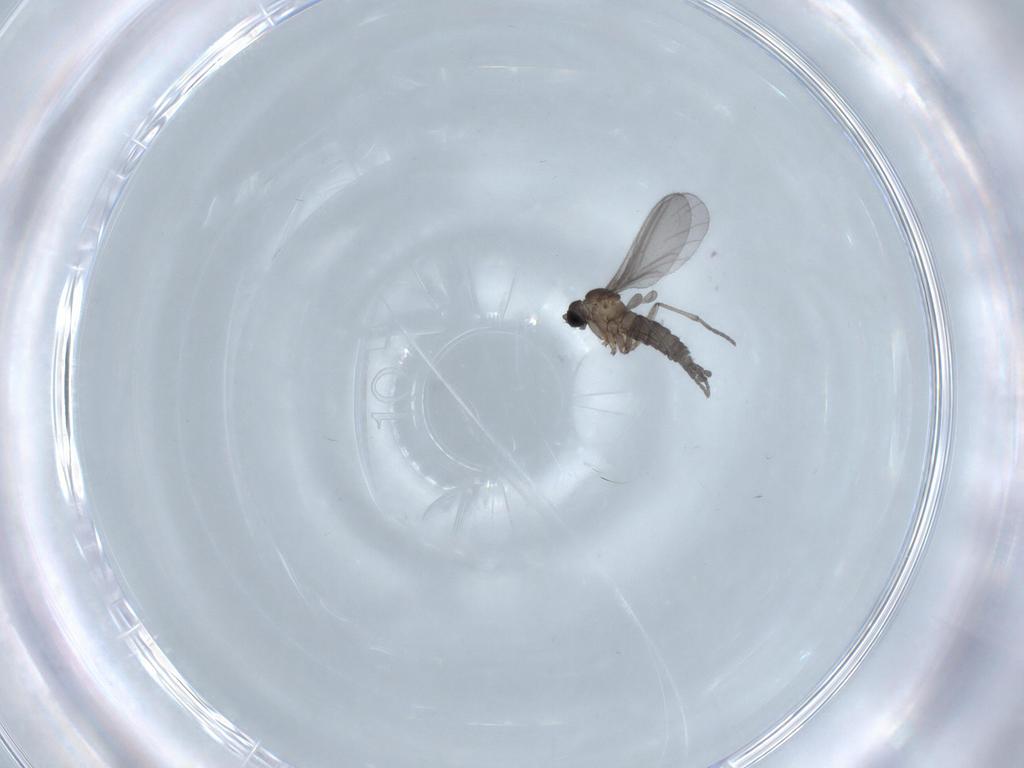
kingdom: Animalia
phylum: Arthropoda
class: Insecta
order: Diptera
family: Sciaridae
